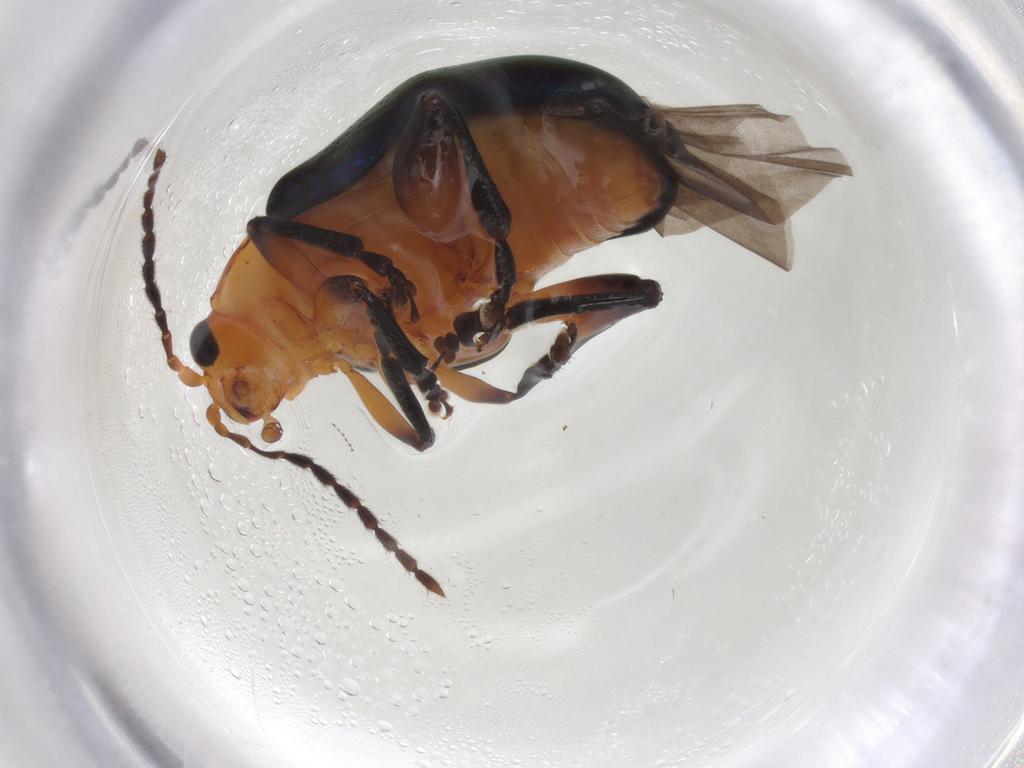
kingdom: Animalia
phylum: Arthropoda
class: Insecta
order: Coleoptera
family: Chrysomelidae
